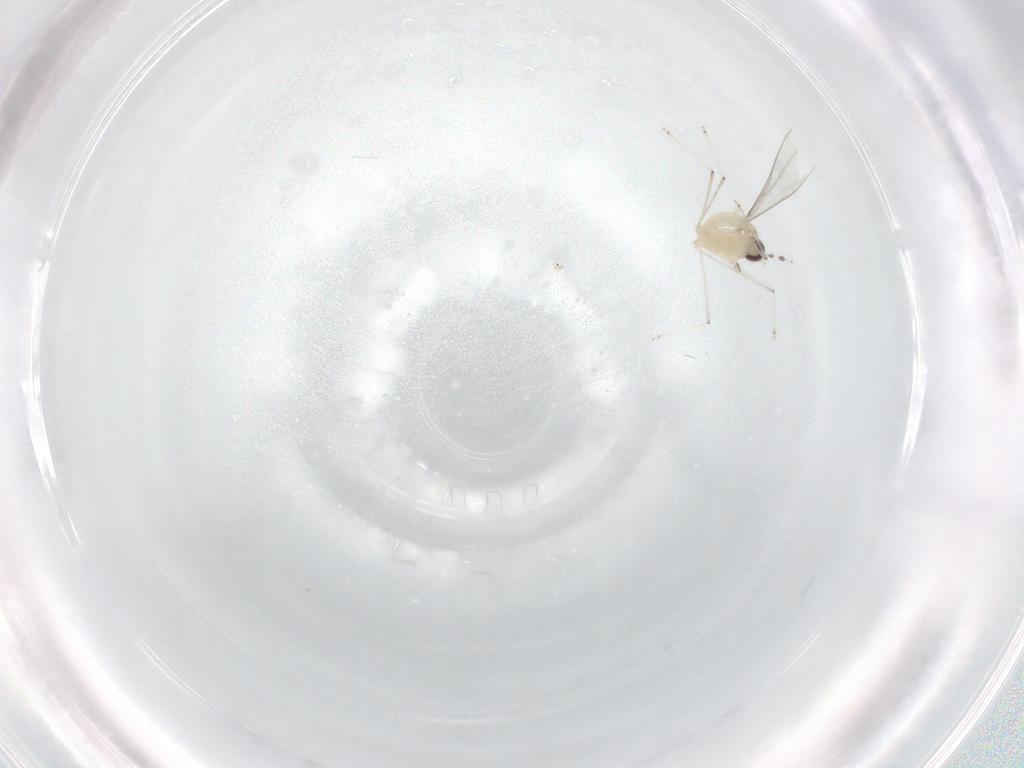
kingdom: Animalia
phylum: Arthropoda
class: Insecta
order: Diptera
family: Cecidomyiidae
